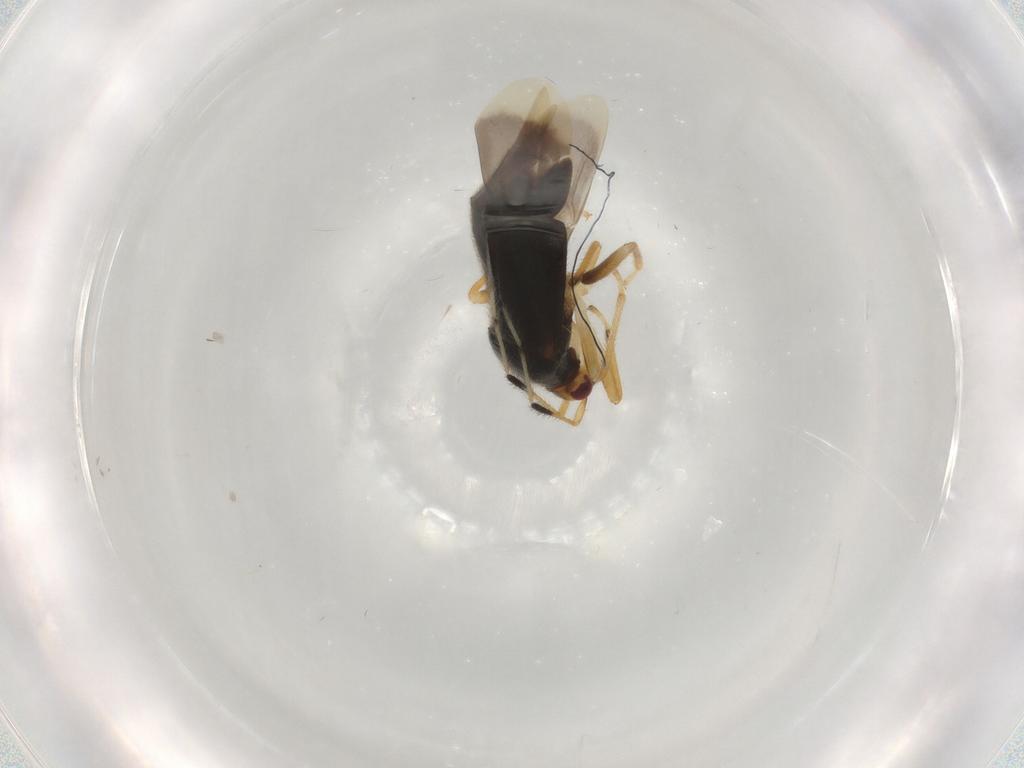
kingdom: Animalia
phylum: Arthropoda
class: Insecta
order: Hemiptera
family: Miridae
